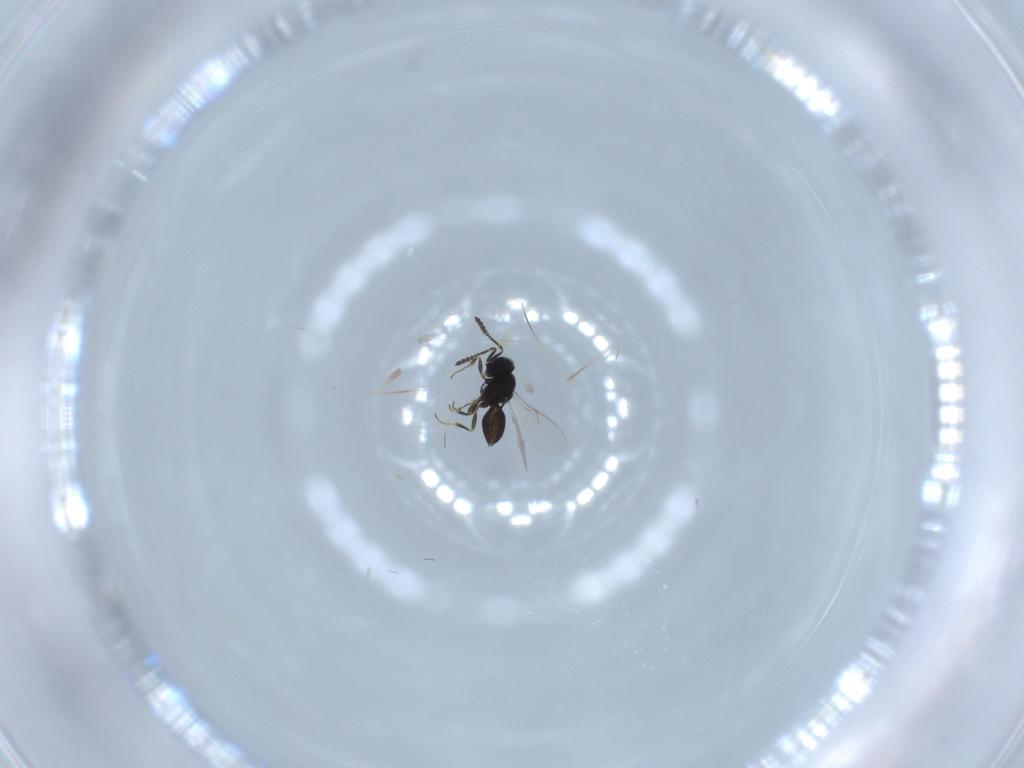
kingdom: Animalia
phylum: Arthropoda
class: Insecta
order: Hymenoptera
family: Scelionidae
